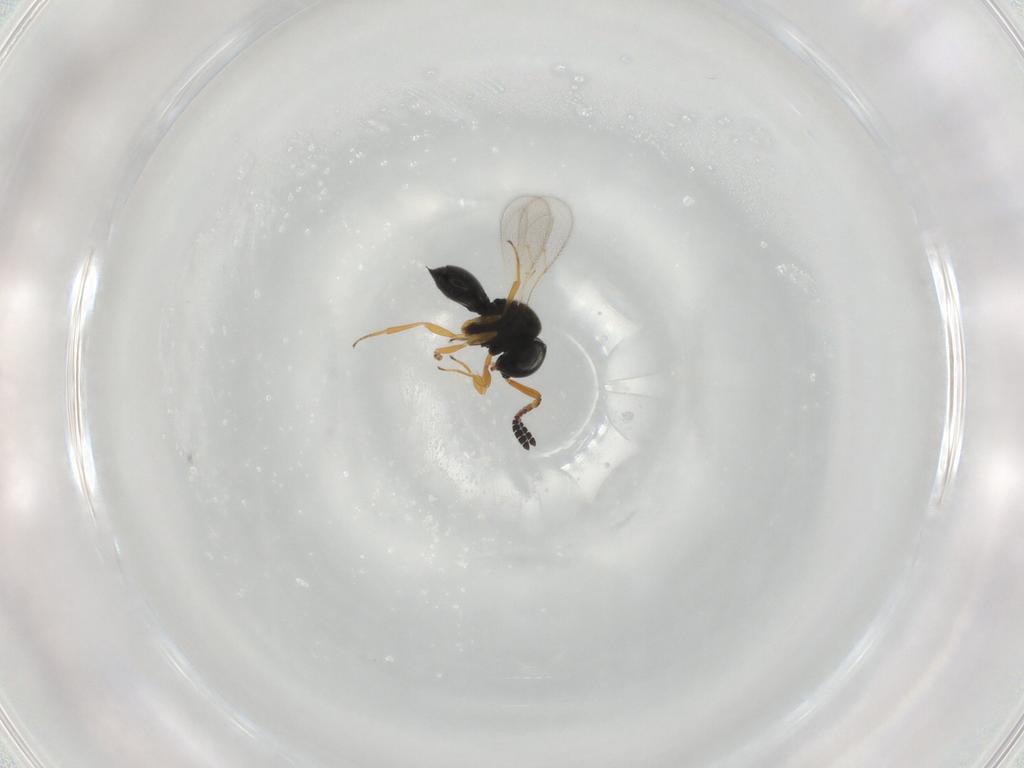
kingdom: Animalia
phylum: Arthropoda
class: Insecta
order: Hymenoptera
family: Scelionidae
